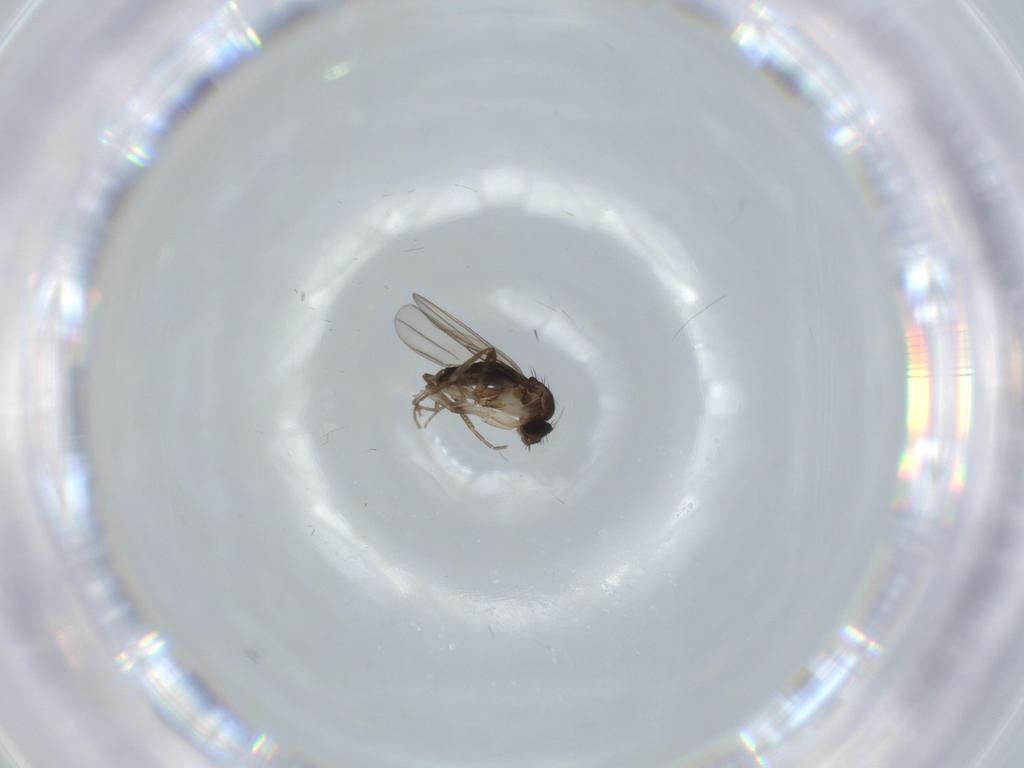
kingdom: Animalia
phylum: Arthropoda
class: Insecta
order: Diptera
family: Phoridae
